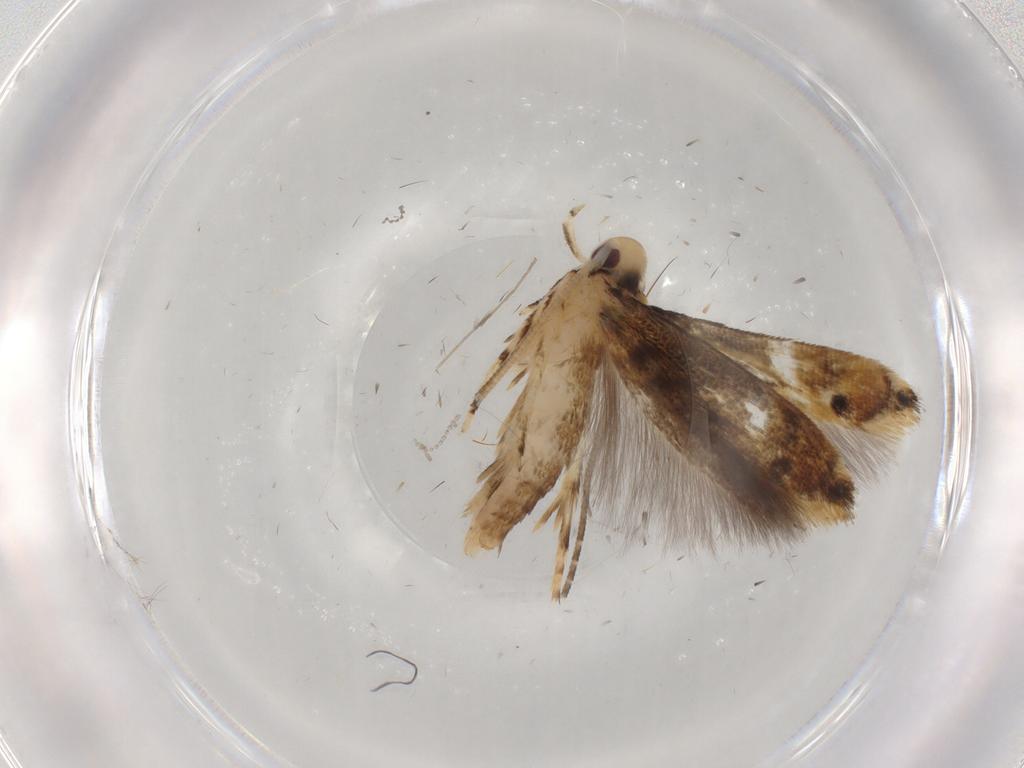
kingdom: Animalia
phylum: Arthropoda
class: Insecta
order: Lepidoptera
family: Momphidae
